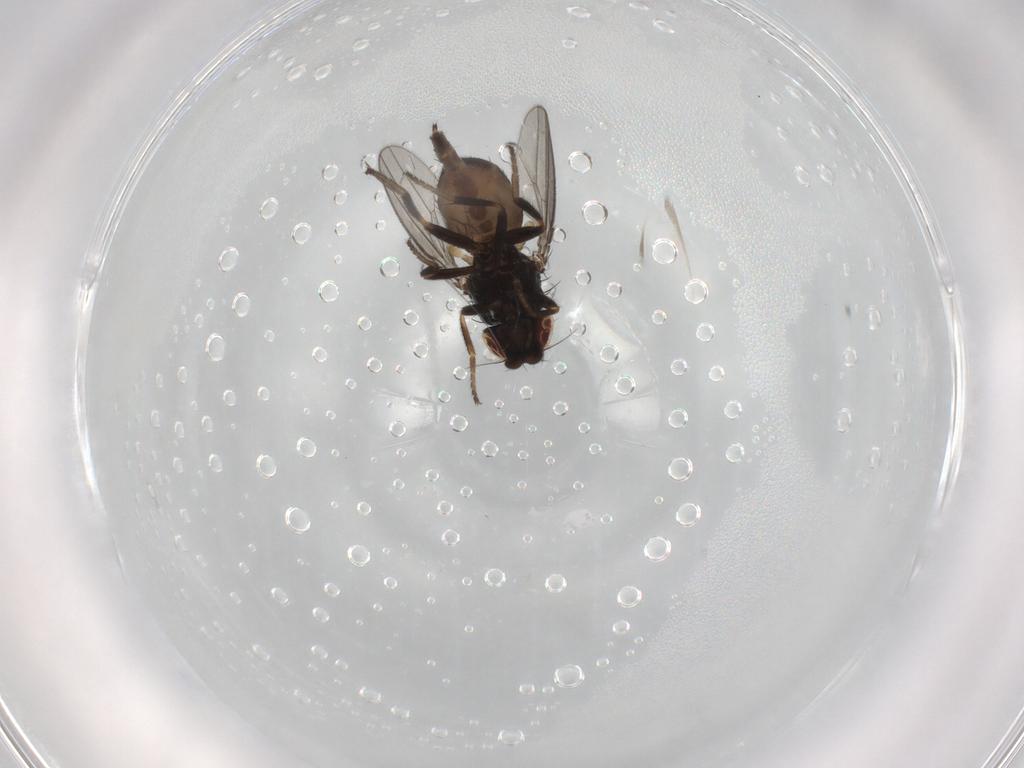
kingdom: Animalia
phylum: Arthropoda
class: Insecta
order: Diptera
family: Milichiidae
